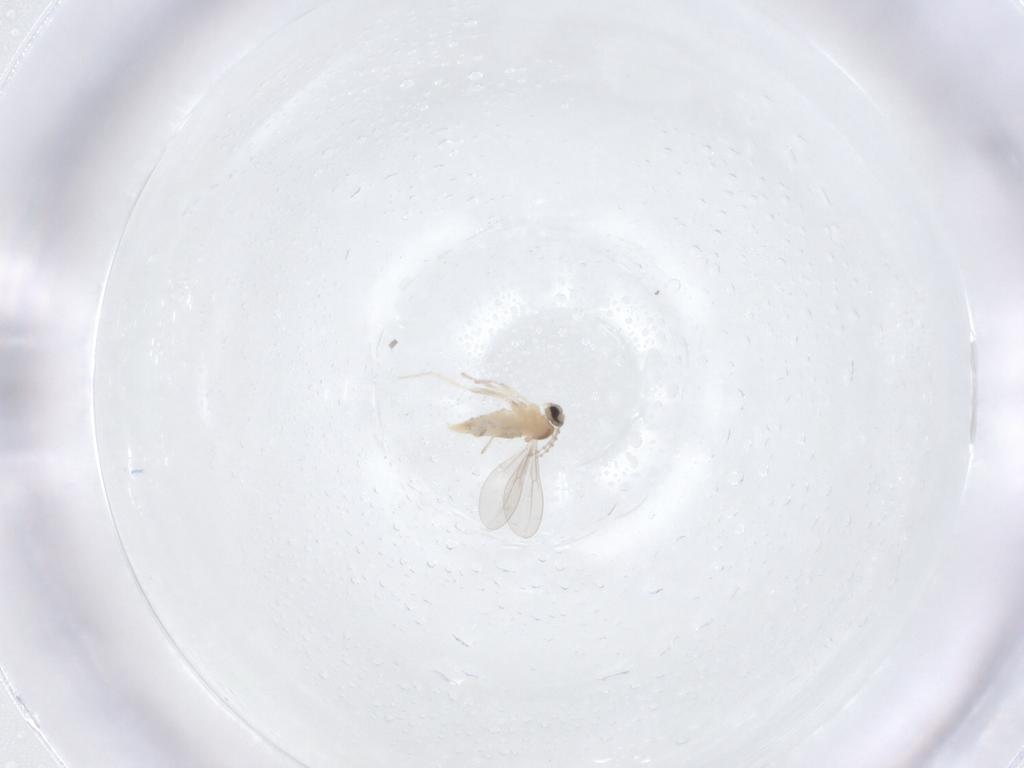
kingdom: Animalia
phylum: Arthropoda
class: Insecta
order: Diptera
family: Cecidomyiidae
